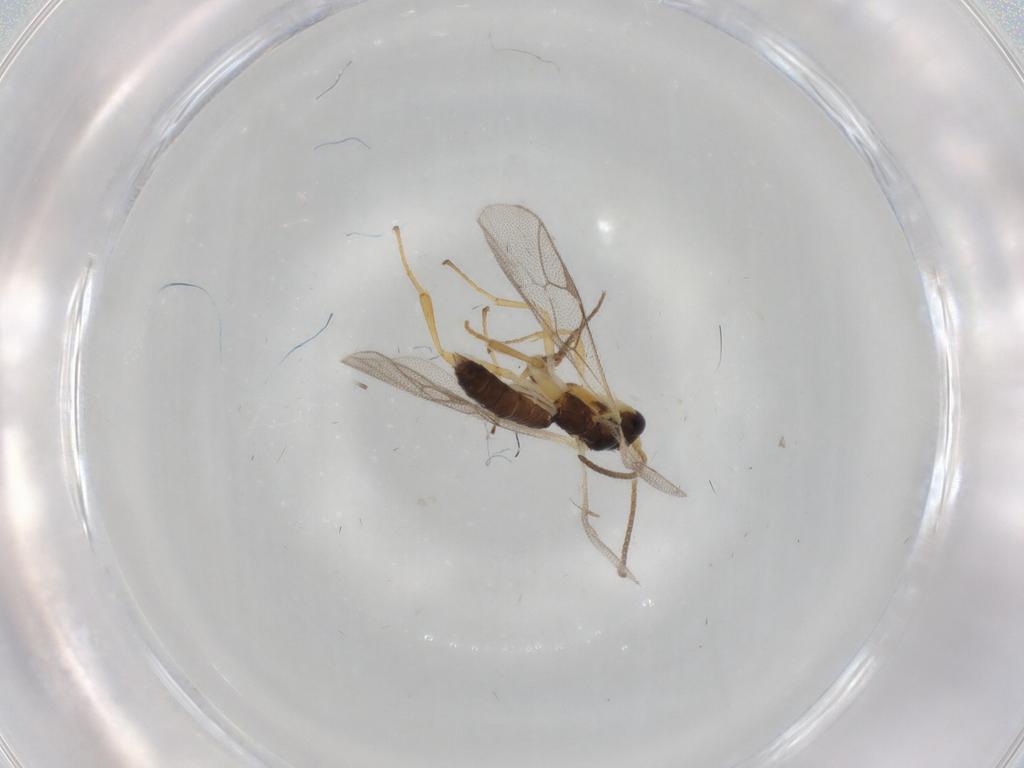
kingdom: Animalia
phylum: Arthropoda
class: Insecta
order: Hymenoptera
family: Ichneumonidae
